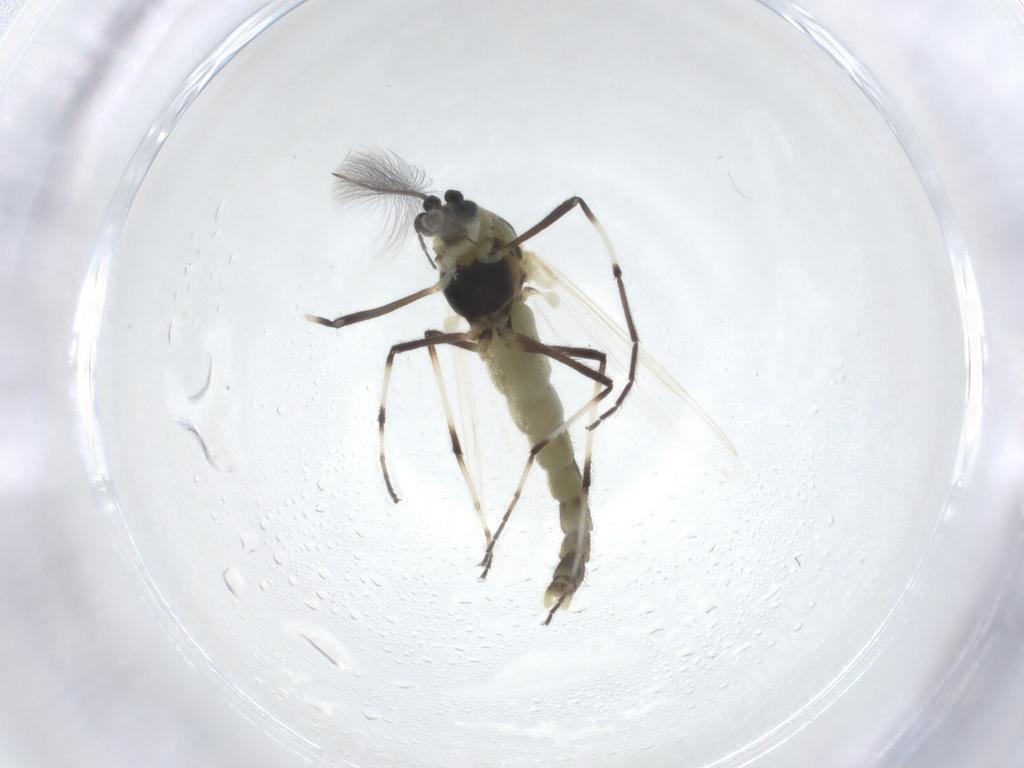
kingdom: Animalia
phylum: Arthropoda
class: Insecta
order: Diptera
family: Chironomidae
